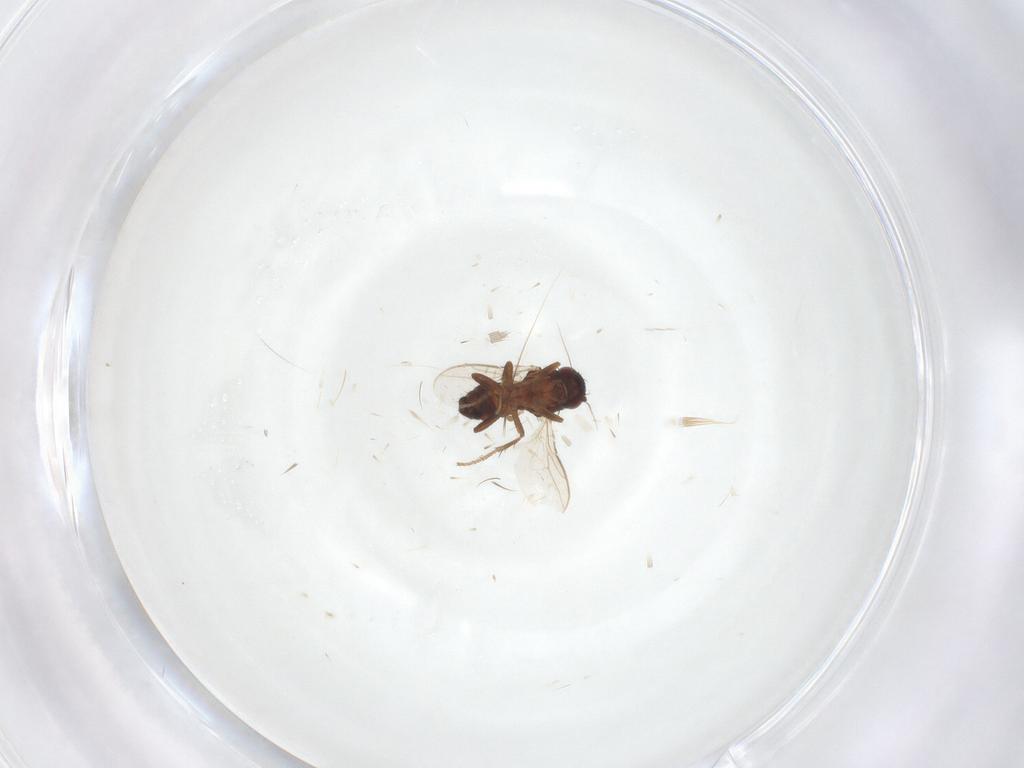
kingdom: Animalia
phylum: Arthropoda
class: Insecta
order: Diptera
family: Sphaeroceridae
